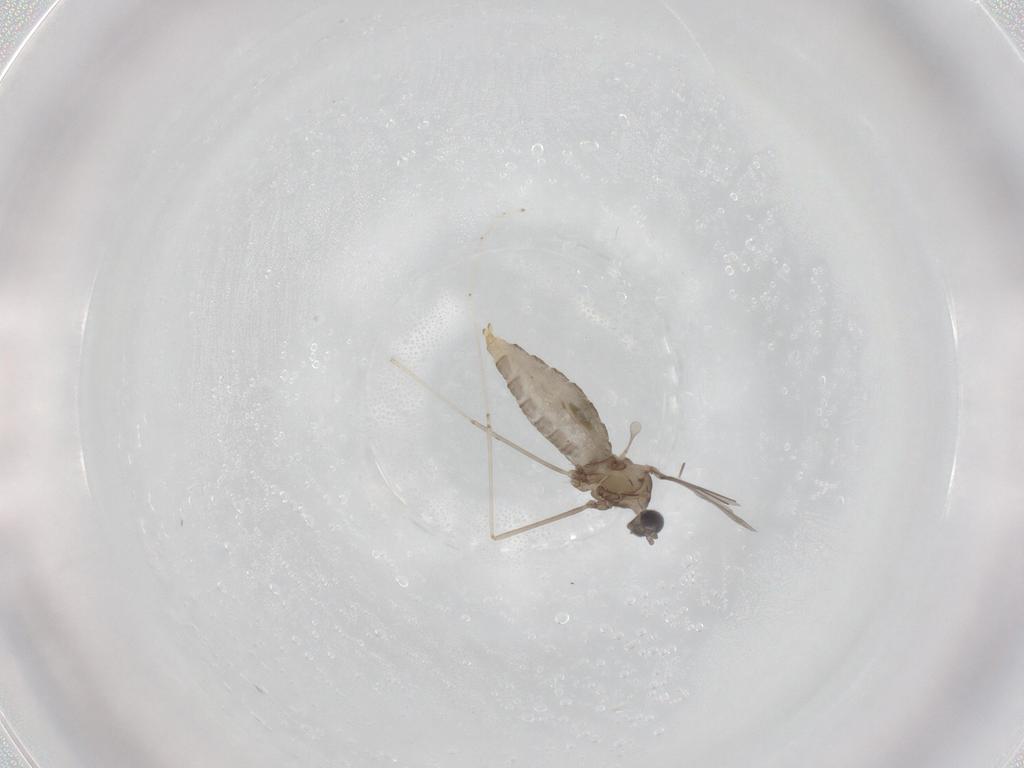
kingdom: Animalia
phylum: Arthropoda
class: Insecta
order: Diptera
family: Cecidomyiidae
